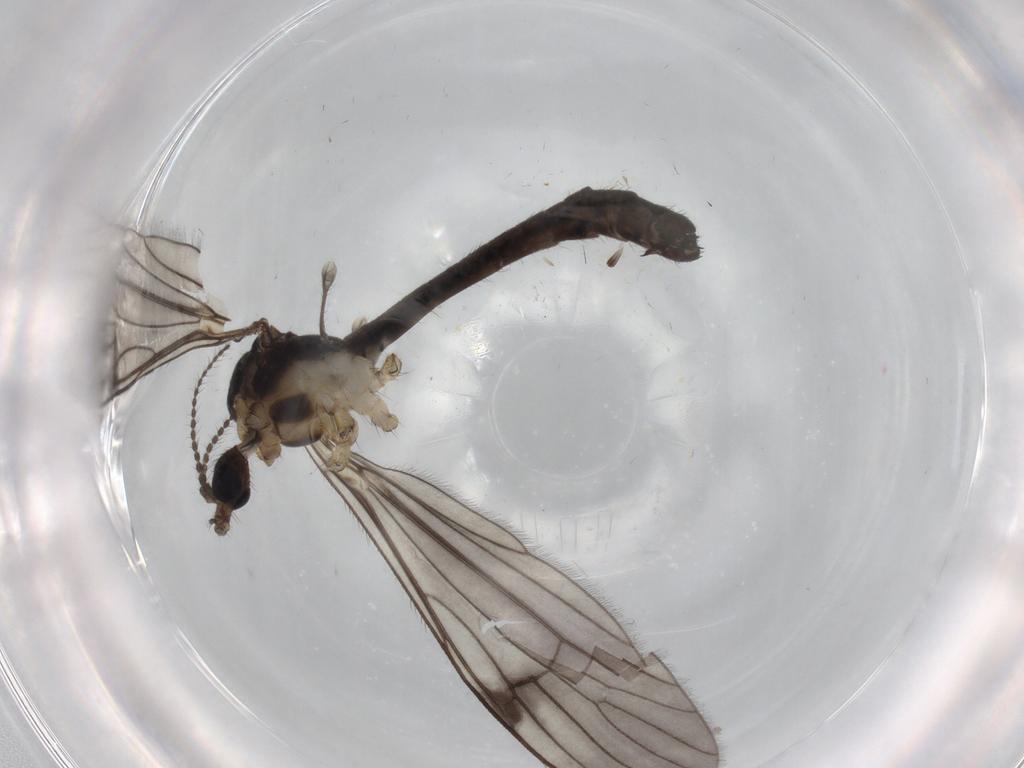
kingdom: Animalia
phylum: Arthropoda
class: Insecta
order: Diptera
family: Limoniidae
